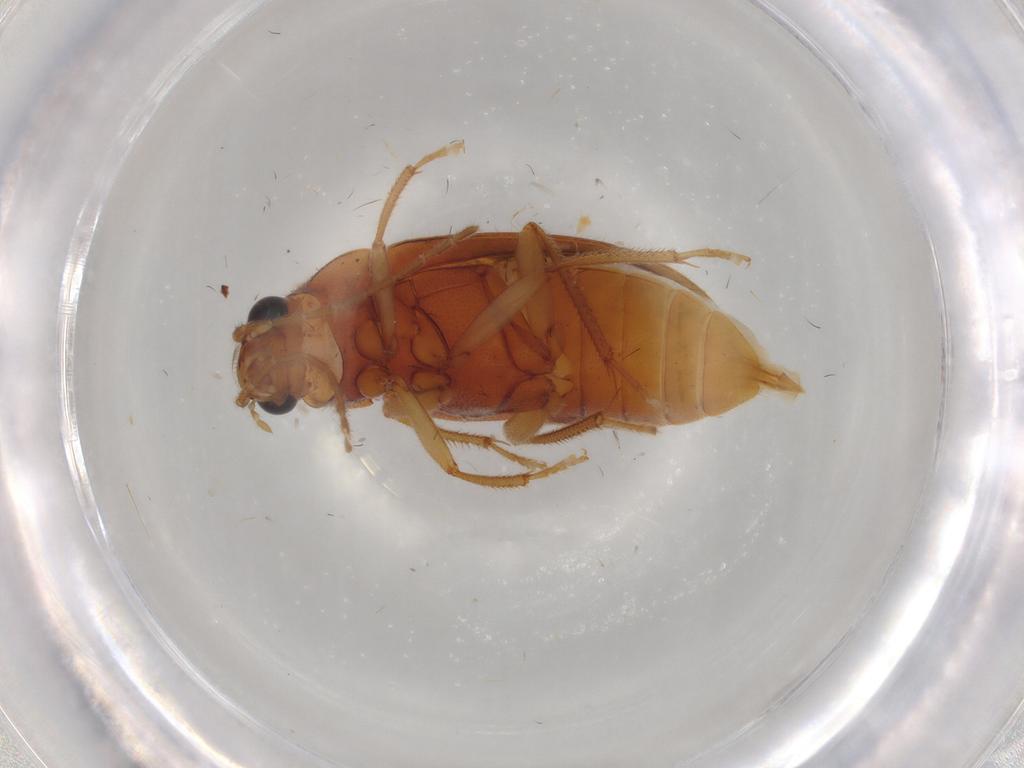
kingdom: Animalia
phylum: Arthropoda
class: Insecta
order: Coleoptera
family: Ptilodactylidae
